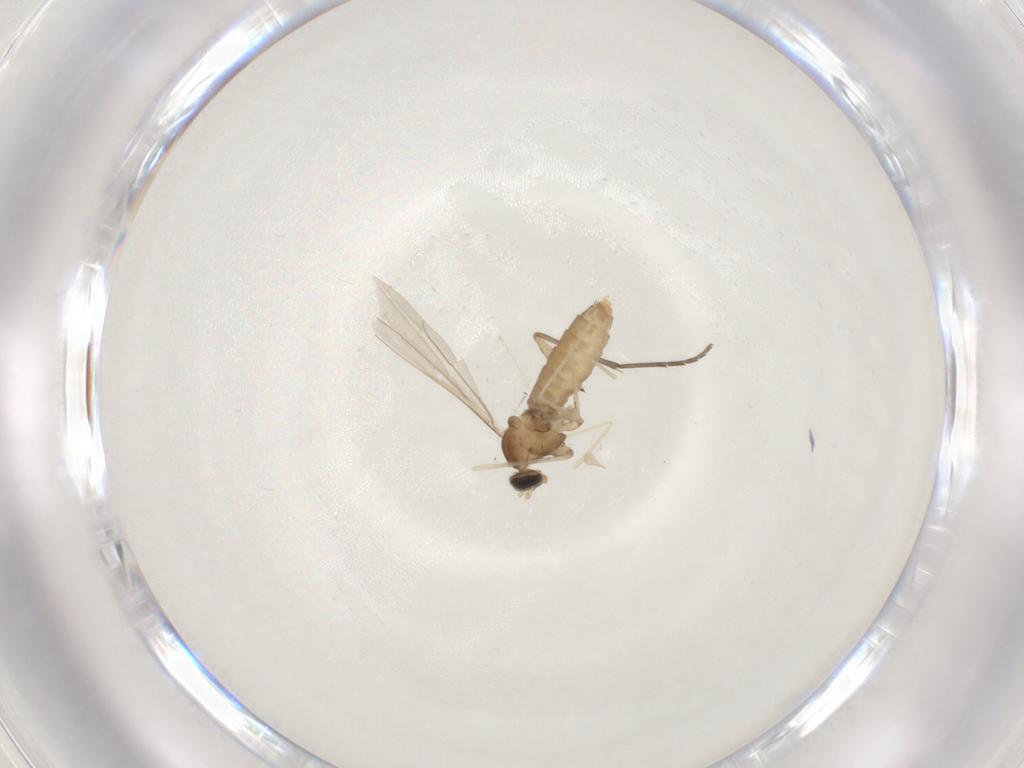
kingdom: Animalia
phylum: Arthropoda
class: Insecta
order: Diptera
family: Cecidomyiidae
